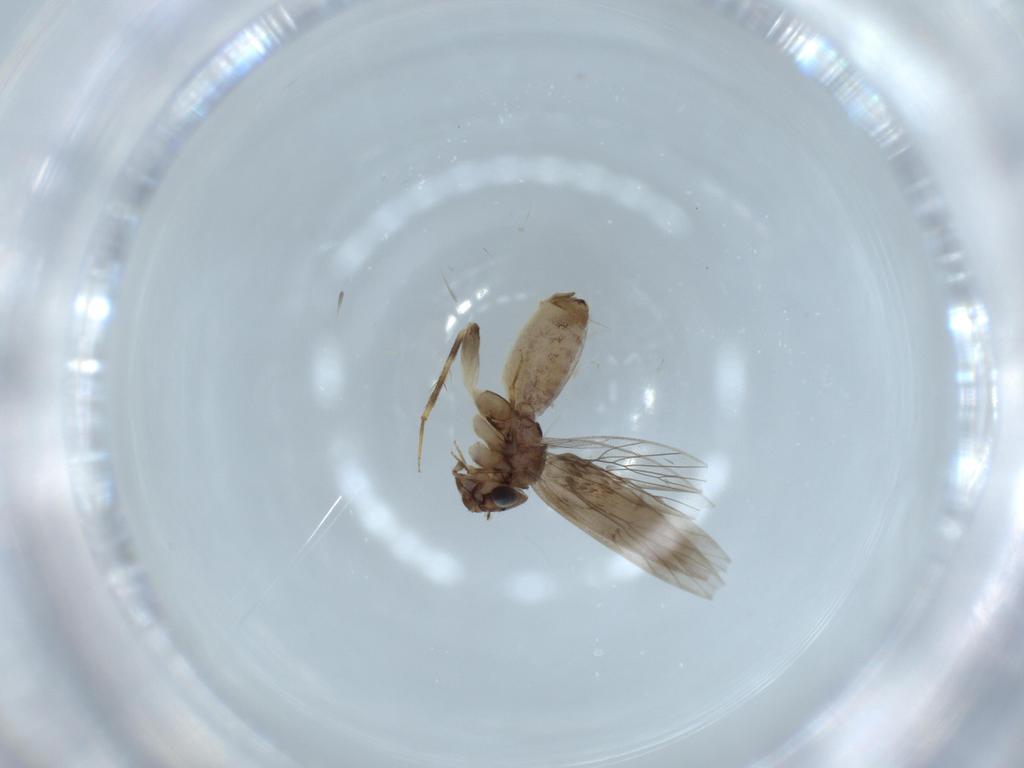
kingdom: Animalia
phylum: Arthropoda
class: Insecta
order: Psocodea
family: Lepidopsocidae
